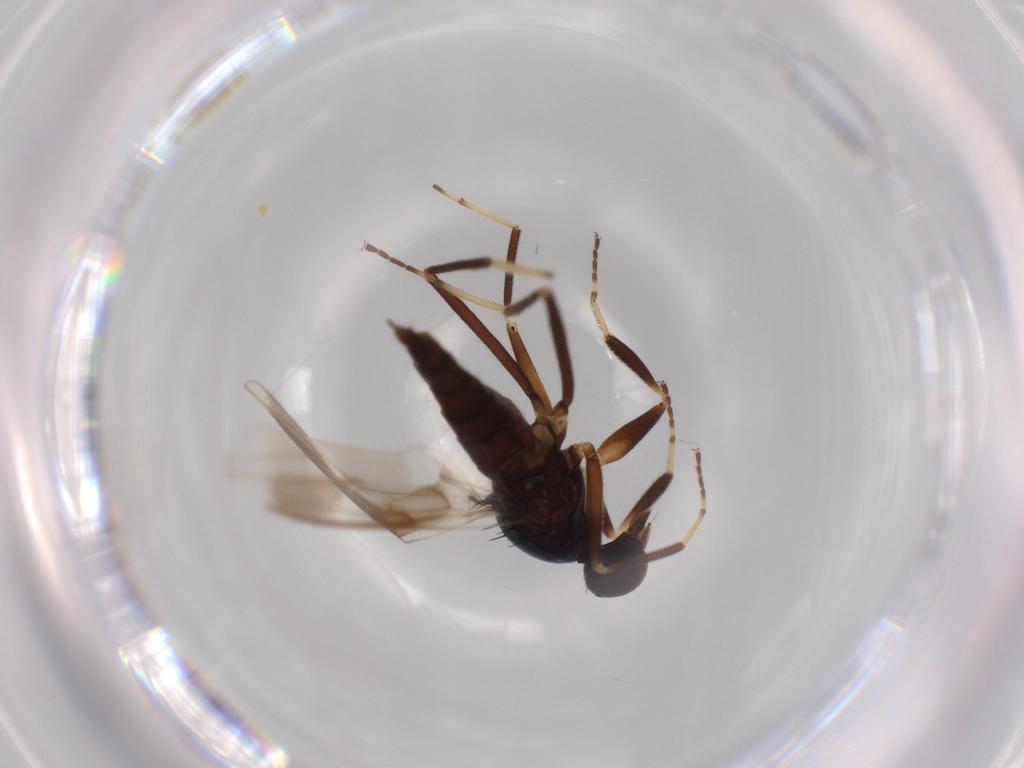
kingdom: Animalia
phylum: Arthropoda
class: Insecta
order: Diptera
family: Hybotidae
